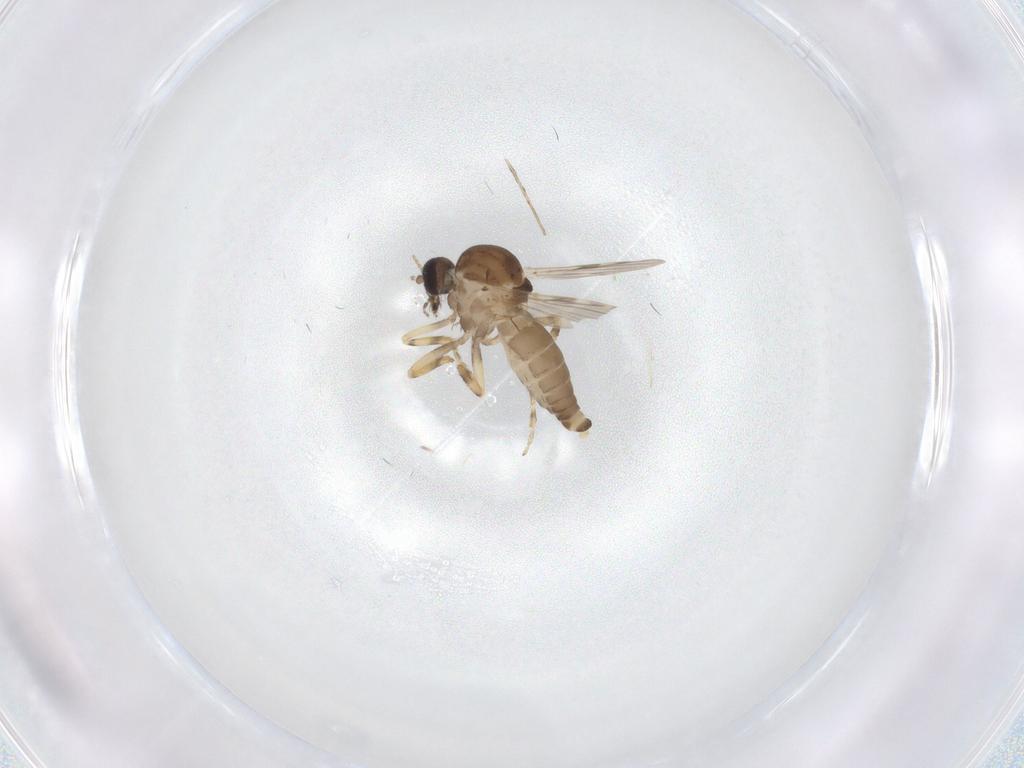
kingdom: Animalia
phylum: Arthropoda
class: Insecta
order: Diptera
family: Ceratopogonidae
